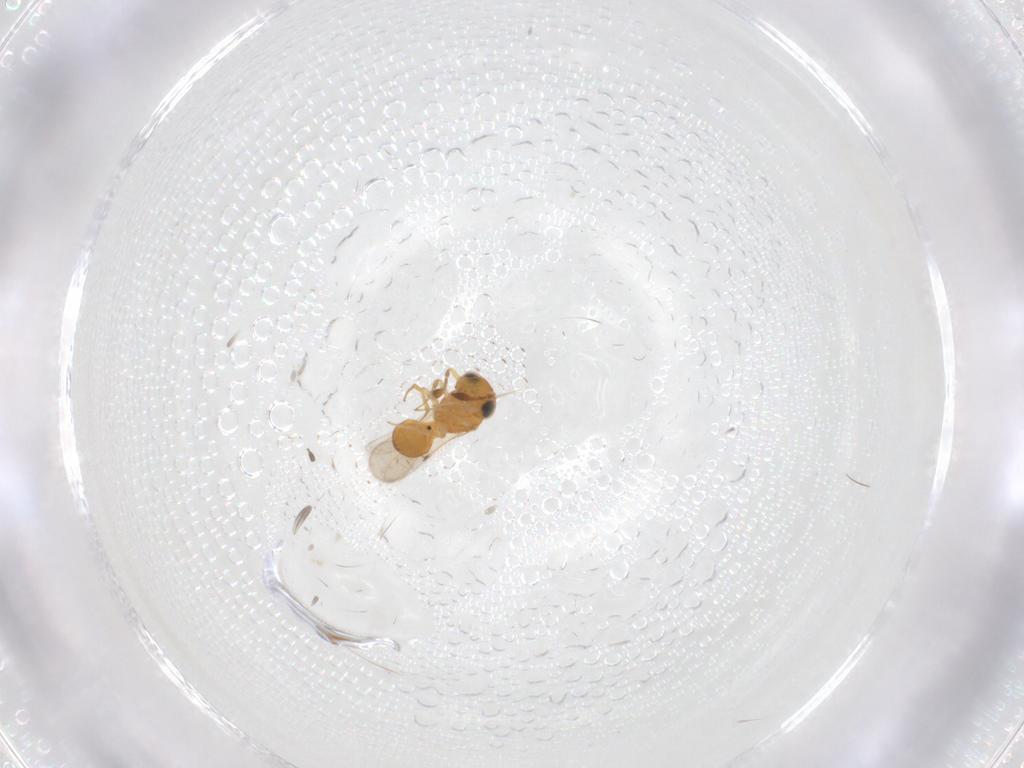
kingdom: Animalia
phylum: Arthropoda
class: Insecta
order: Hymenoptera
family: Scelionidae
